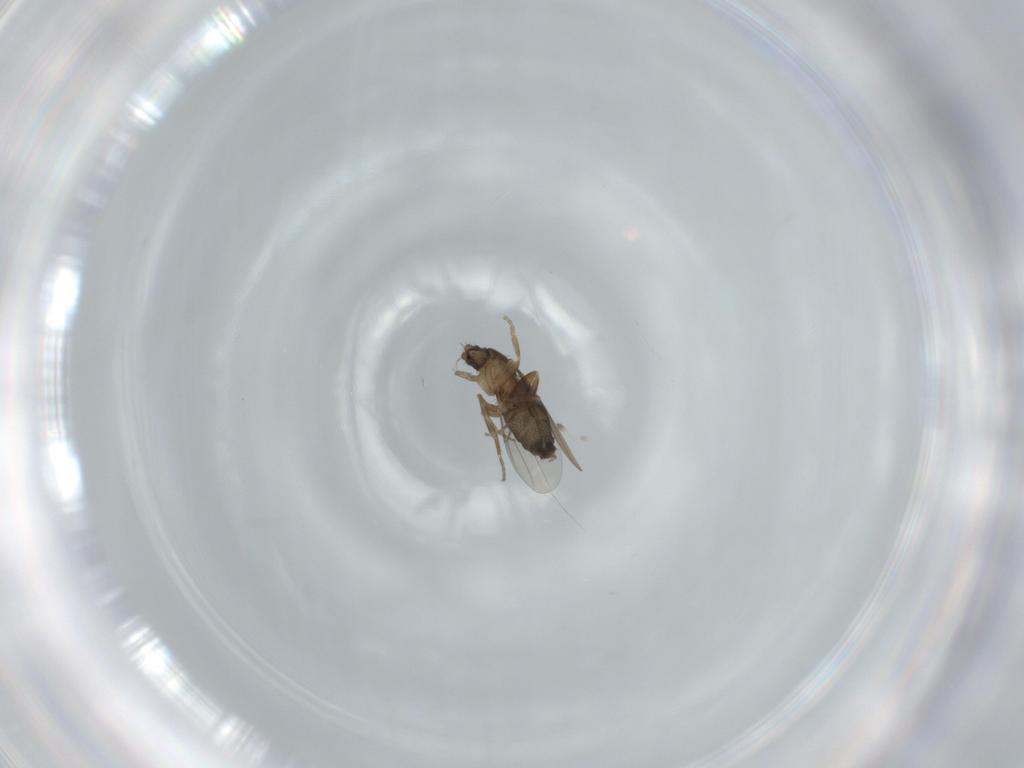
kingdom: Animalia
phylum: Arthropoda
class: Insecta
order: Diptera
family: Phoridae
